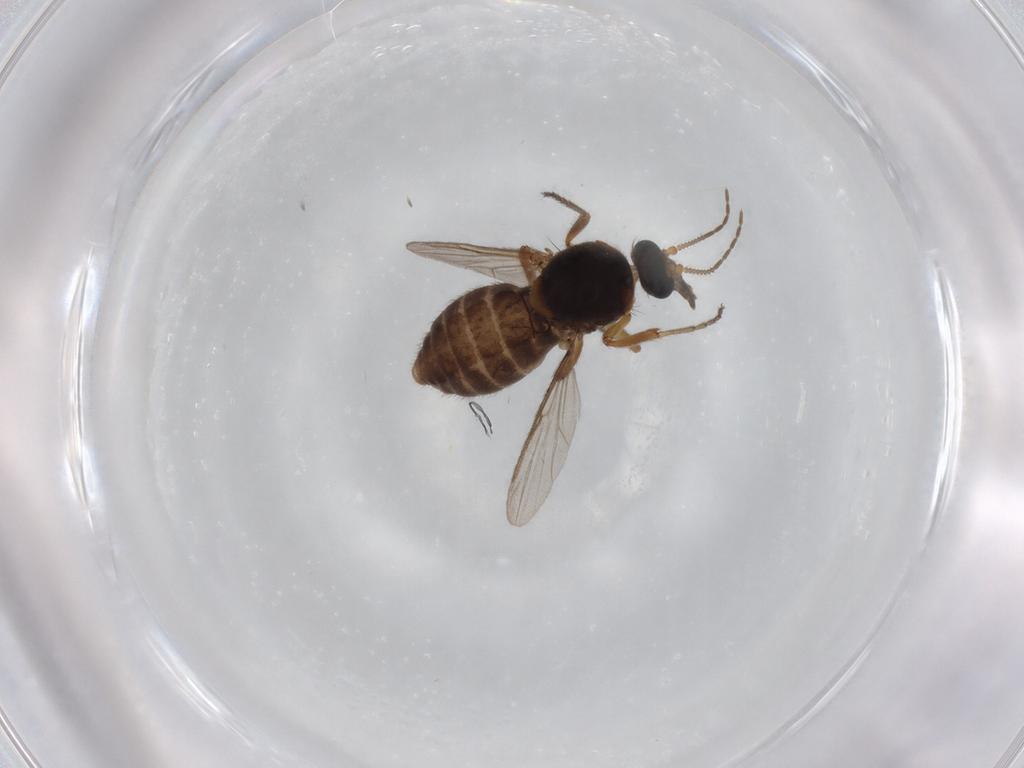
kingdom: Animalia
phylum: Arthropoda
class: Insecta
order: Diptera
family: Ceratopogonidae
